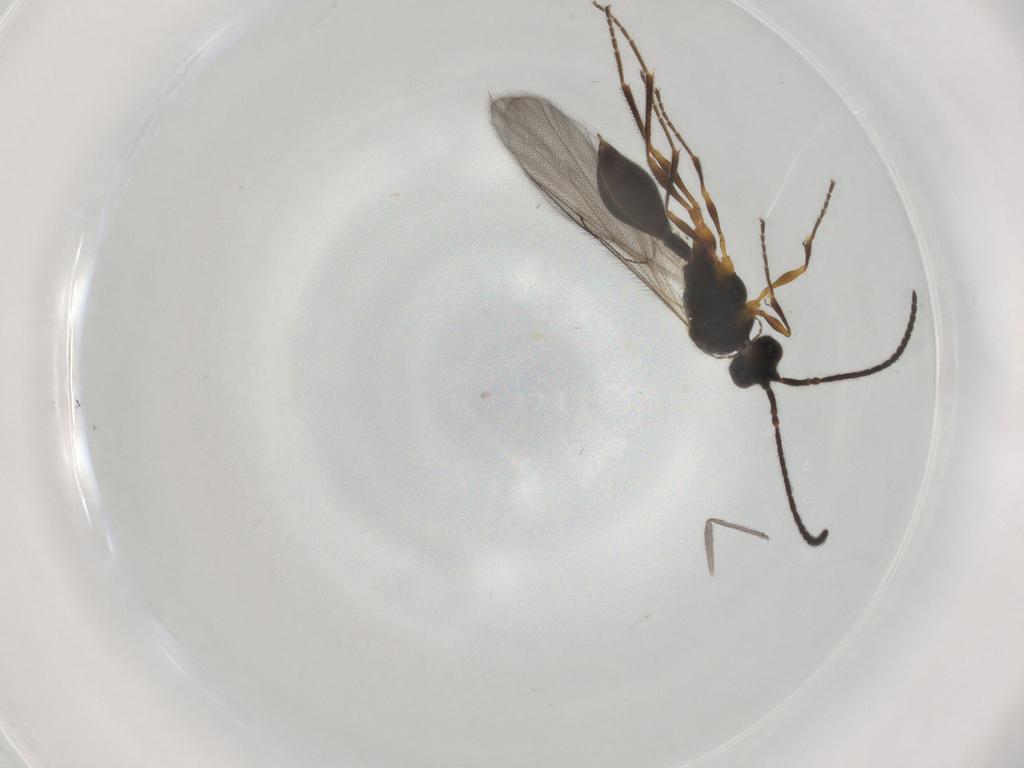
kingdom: Animalia
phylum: Arthropoda
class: Insecta
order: Hymenoptera
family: Diapriidae
